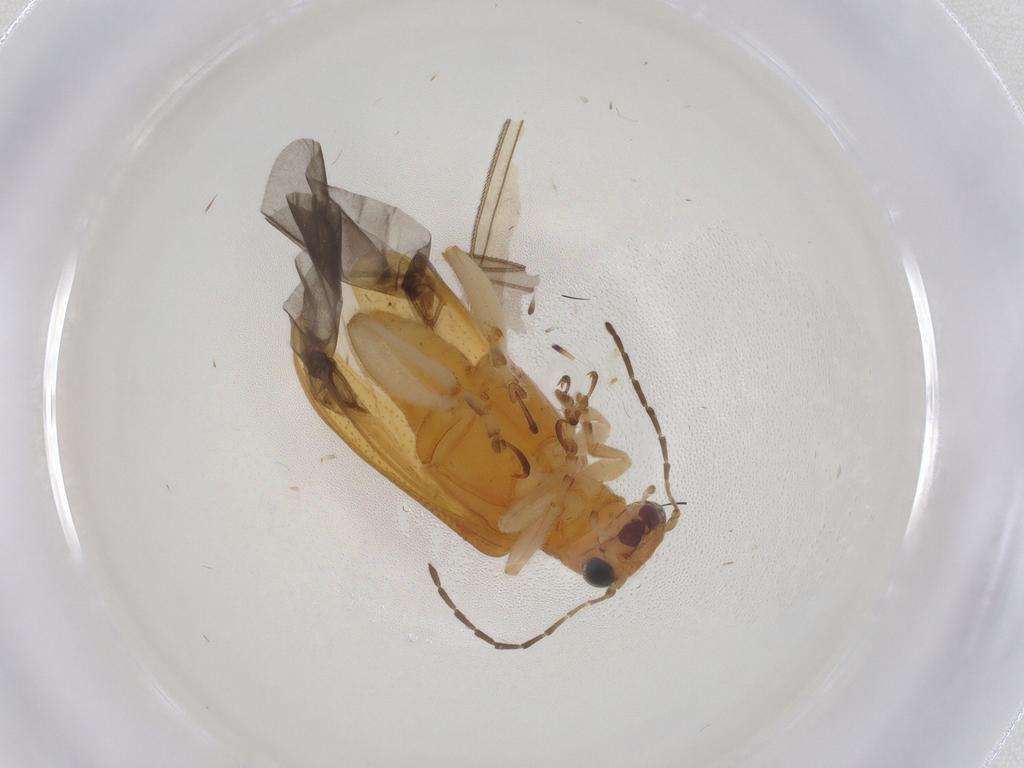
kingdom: Animalia
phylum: Arthropoda
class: Insecta
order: Coleoptera
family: Chrysomelidae
